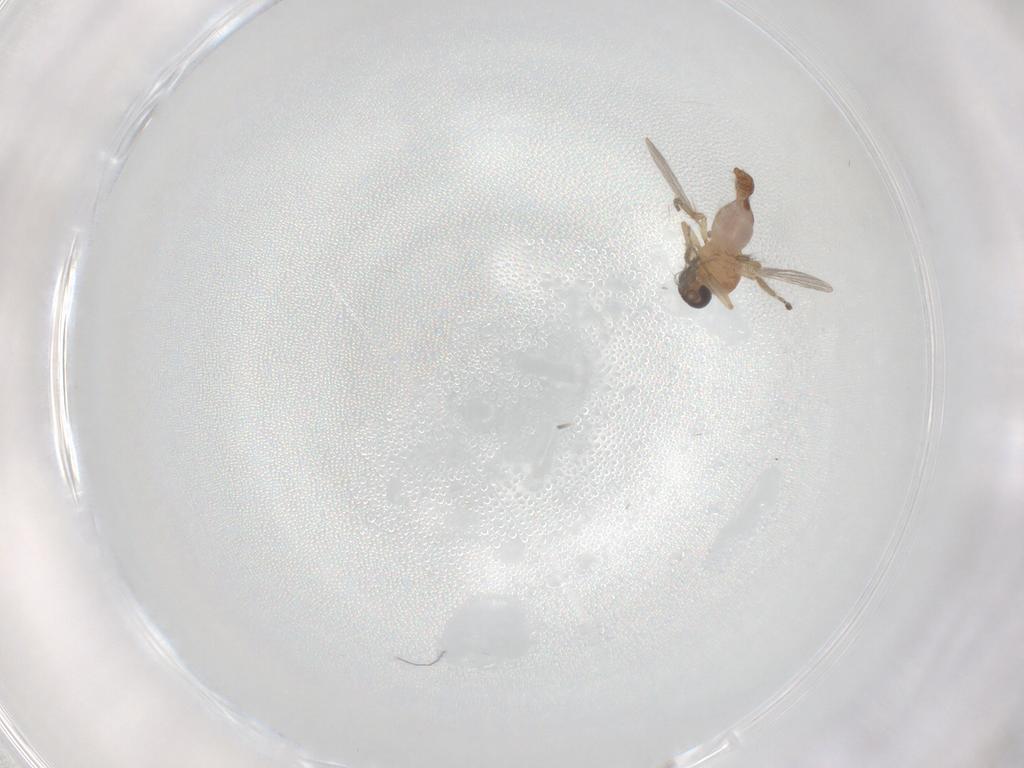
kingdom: Animalia
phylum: Arthropoda
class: Insecta
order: Diptera
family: Ceratopogonidae
